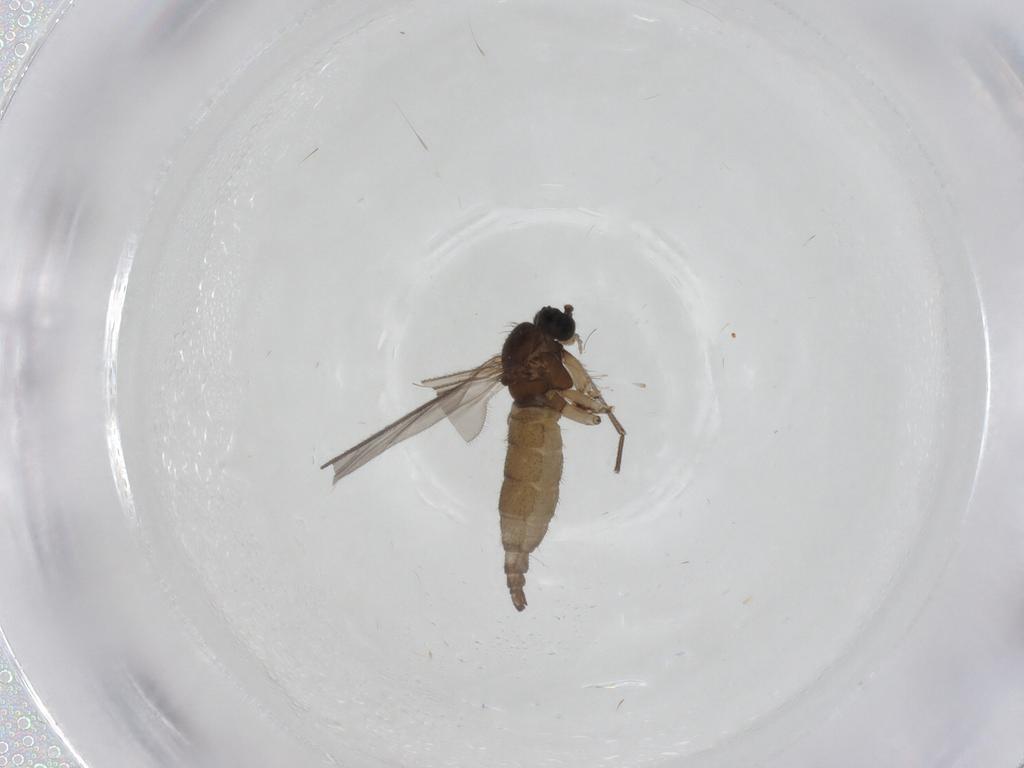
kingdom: Animalia
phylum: Arthropoda
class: Insecta
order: Diptera
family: Sciaridae
